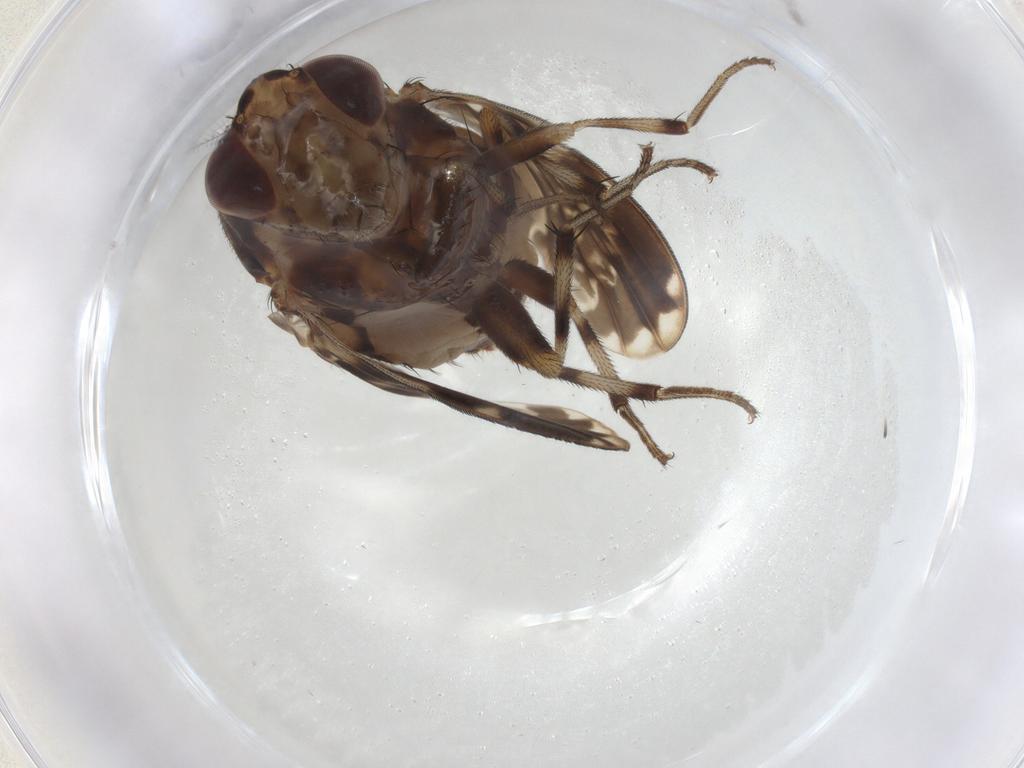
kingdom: Animalia
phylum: Arthropoda
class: Insecta
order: Diptera
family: Lauxaniidae
